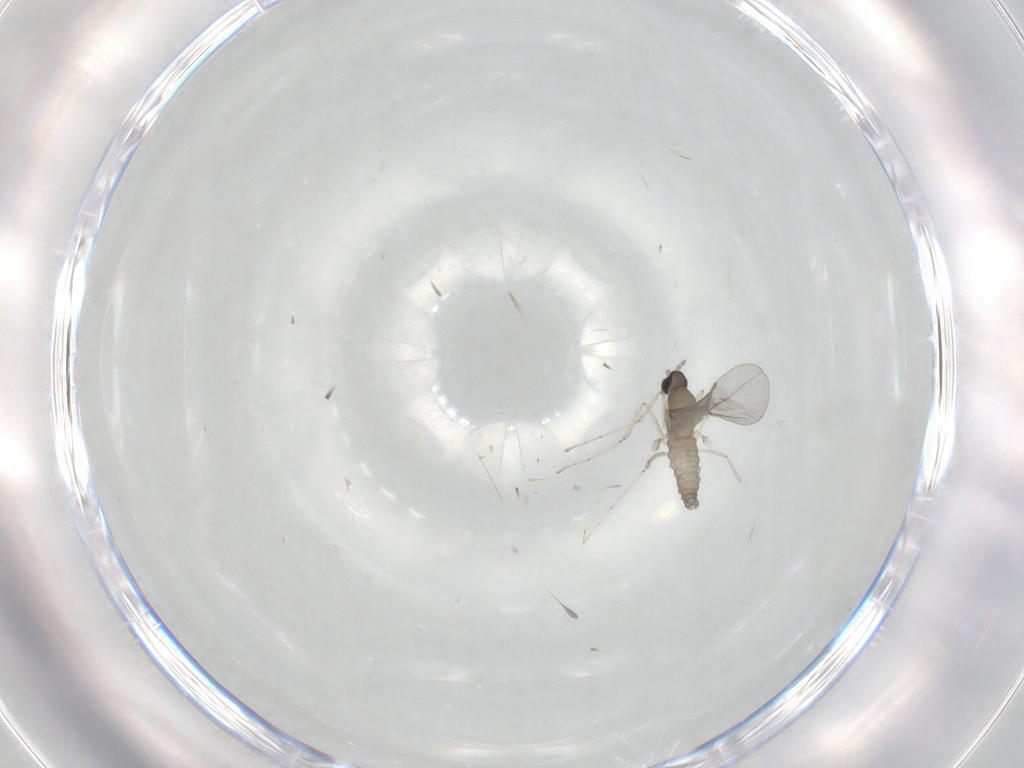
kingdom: Animalia
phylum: Arthropoda
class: Insecta
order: Diptera
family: Cecidomyiidae
